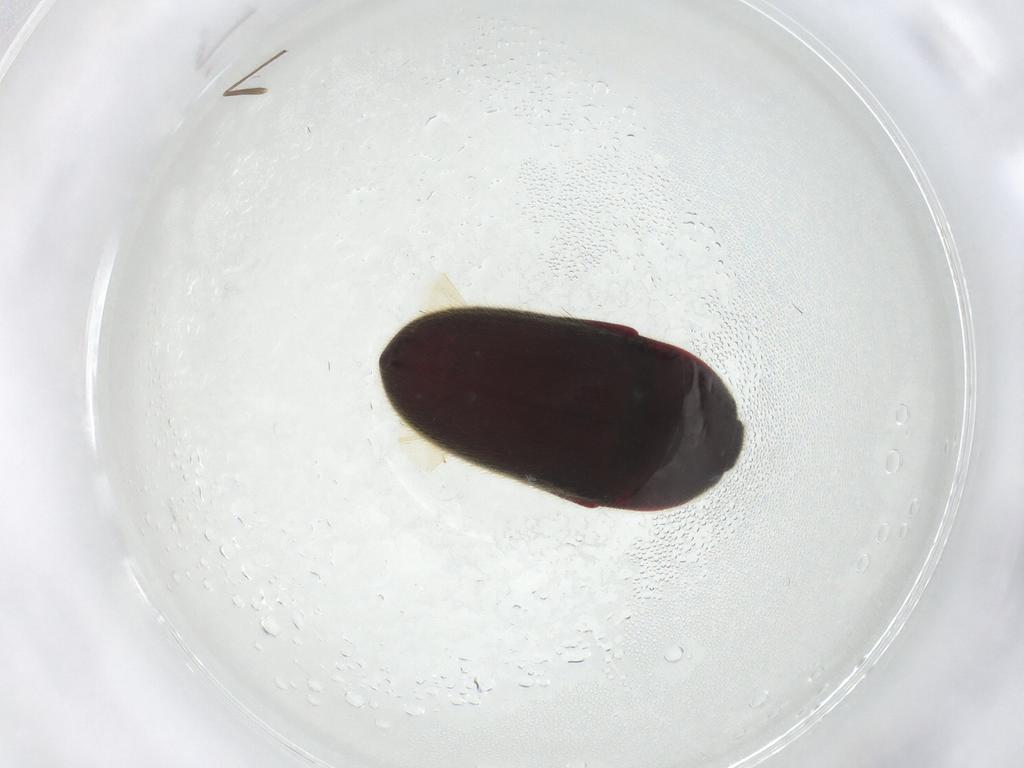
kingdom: Animalia
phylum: Arthropoda
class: Insecta
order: Coleoptera
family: Throscidae
